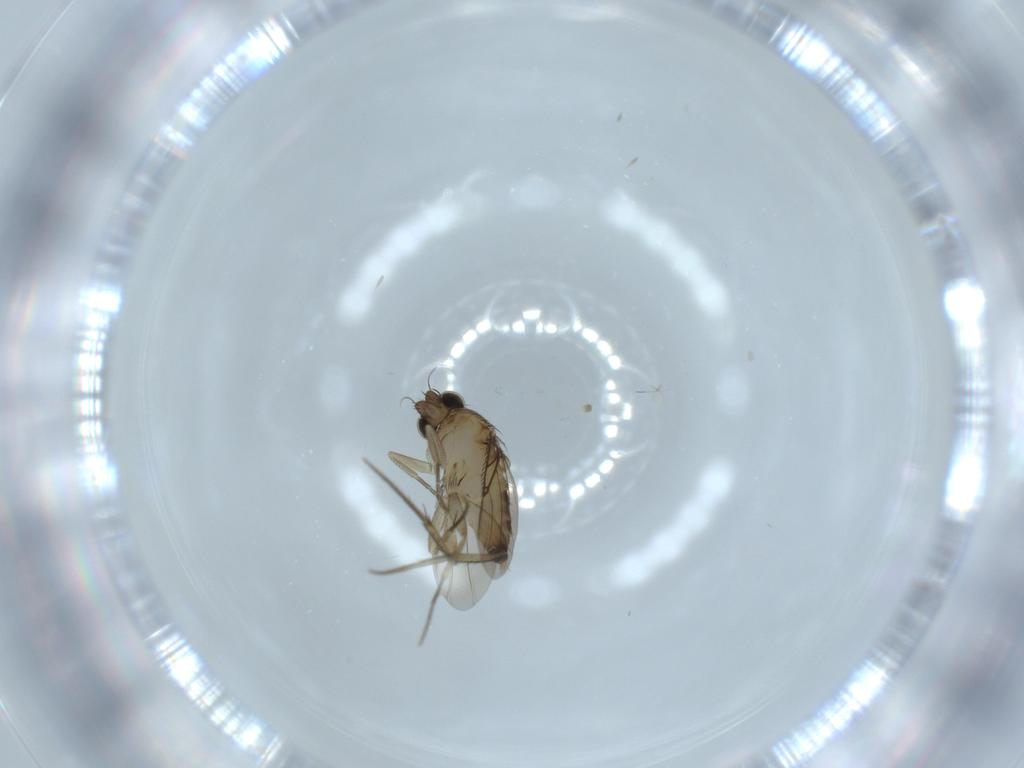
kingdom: Animalia
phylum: Arthropoda
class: Insecta
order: Diptera
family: Phoridae
